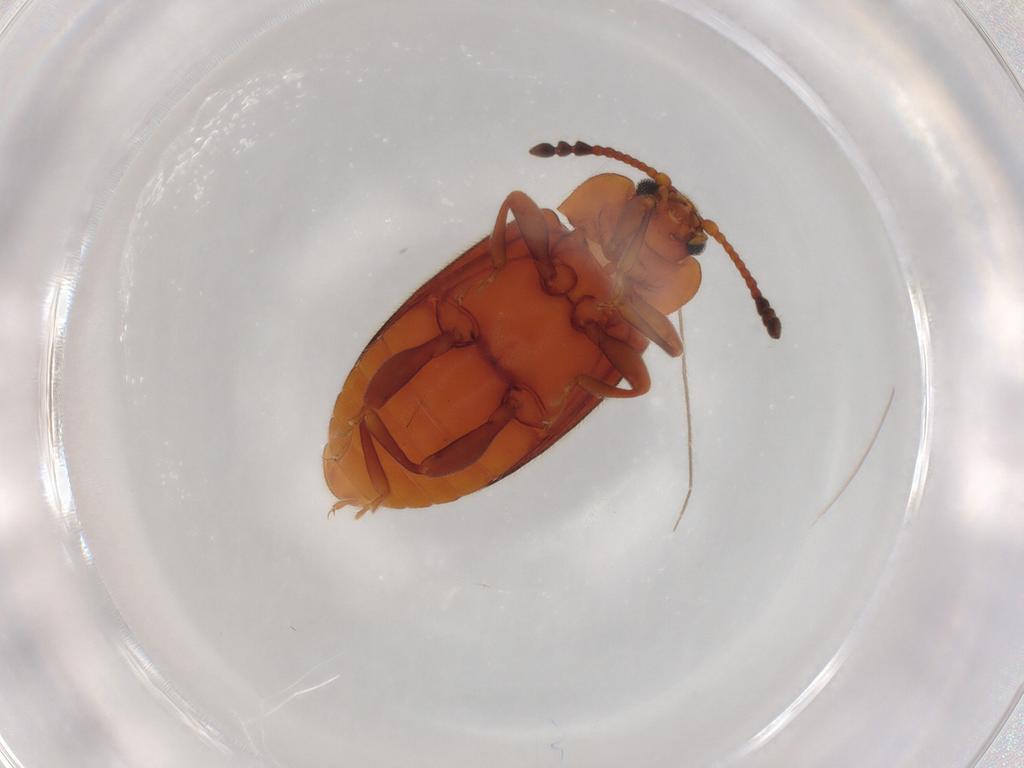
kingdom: Animalia
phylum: Arthropoda
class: Insecta
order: Coleoptera
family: Endomychidae
